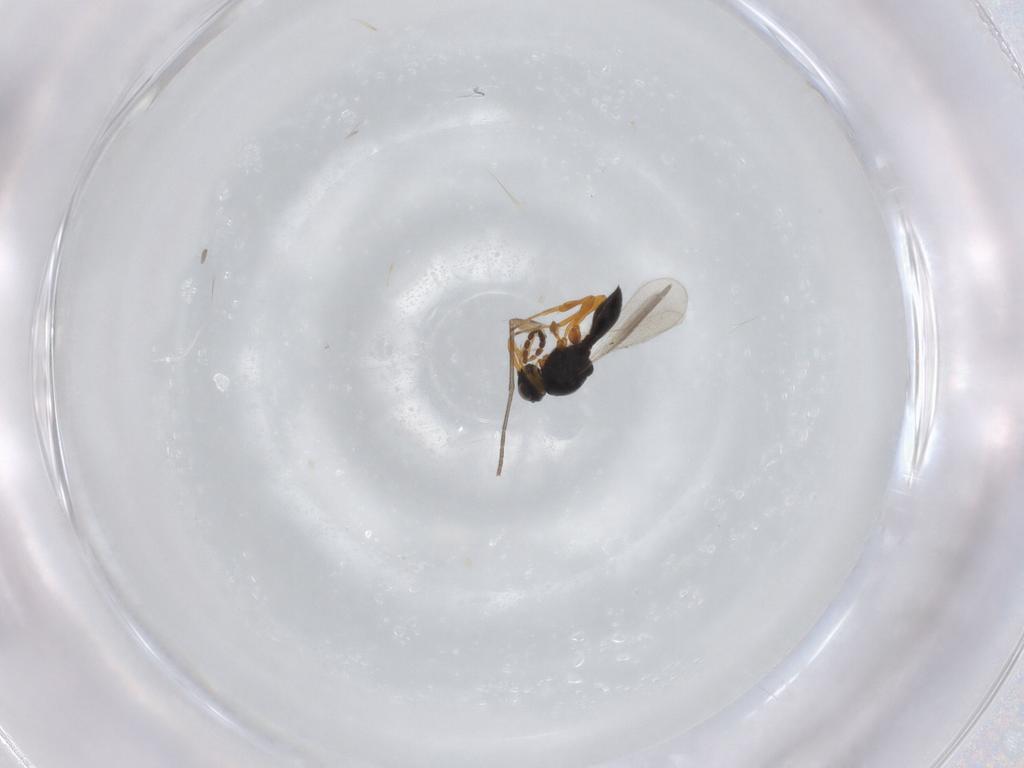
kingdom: Animalia
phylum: Arthropoda
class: Insecta
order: Hymenoptera
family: Platygastridae
